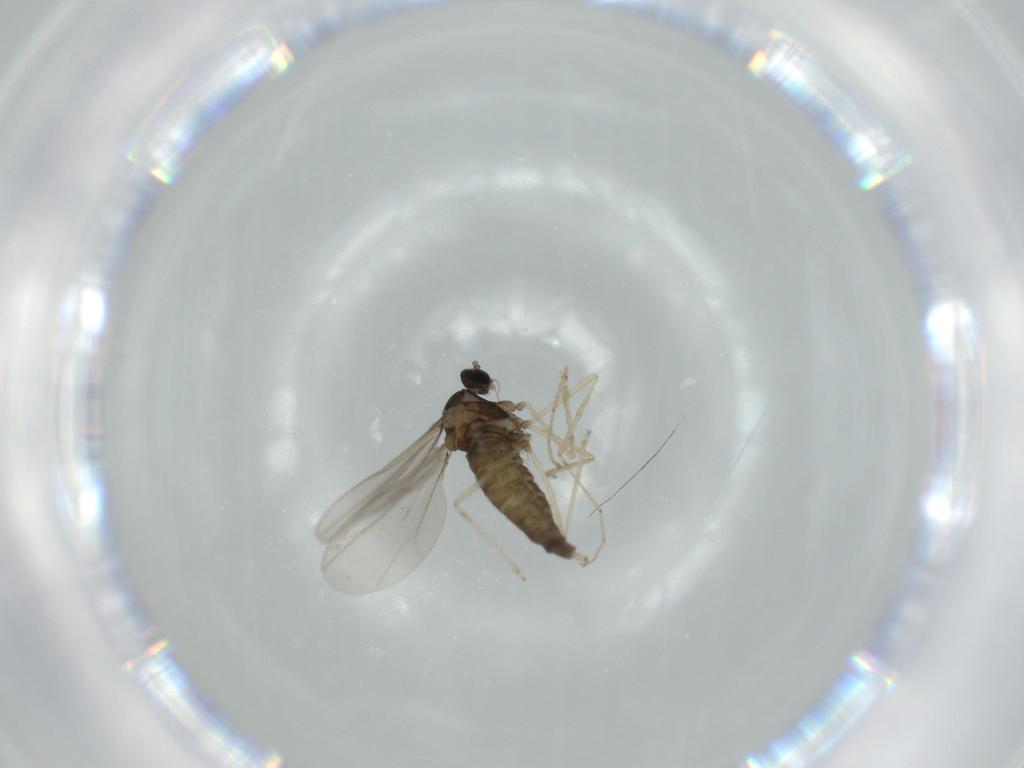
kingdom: Animalia
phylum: Arthropoda
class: Insecta
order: Diptera
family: Cecidomyiidae
